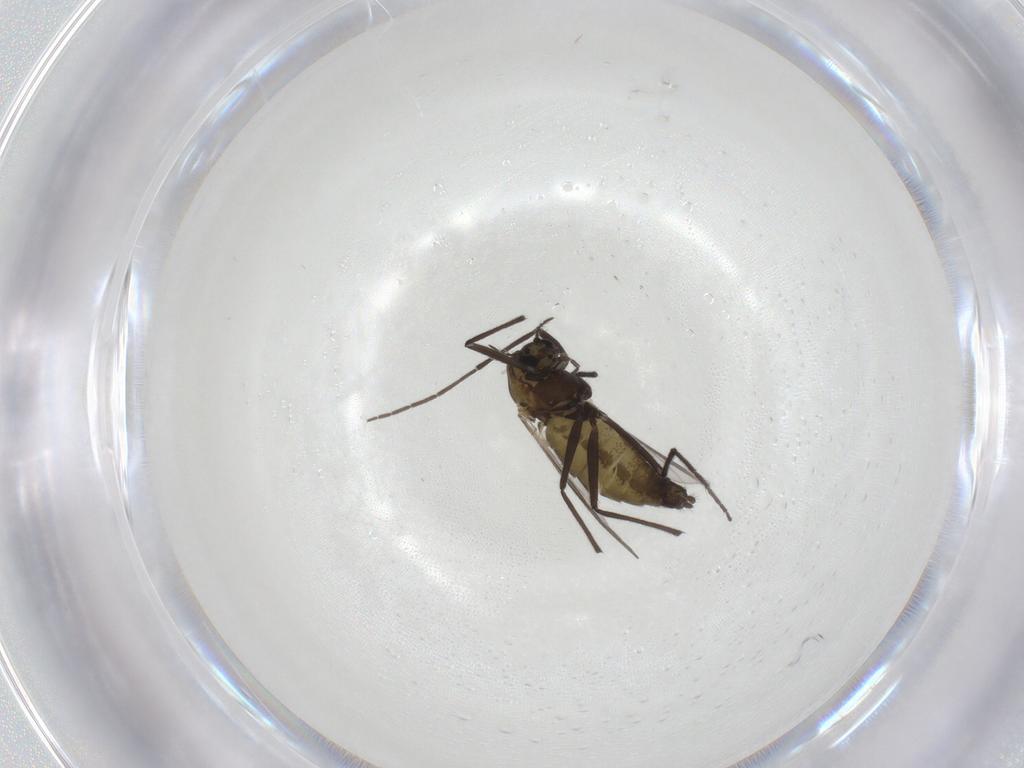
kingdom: Animalia
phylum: Arthropoda
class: Insecta
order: Diptera
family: Chironomidae
